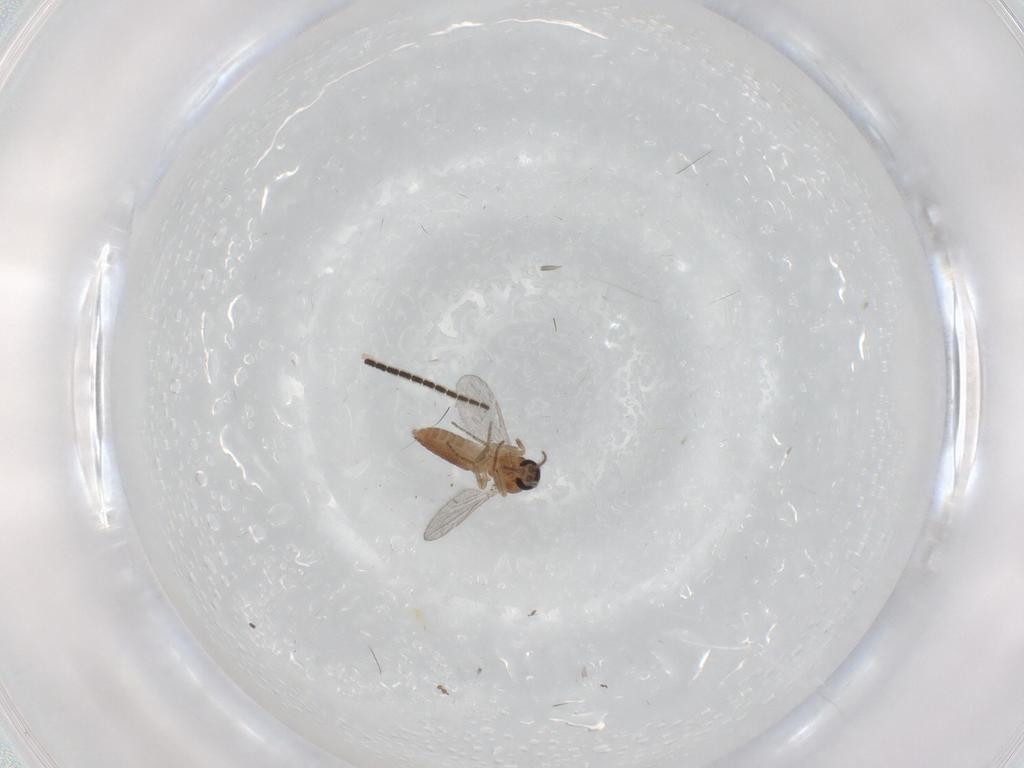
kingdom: Animalia
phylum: Arthropoda
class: Insecta
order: Diptera
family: Ceratopogonidae
